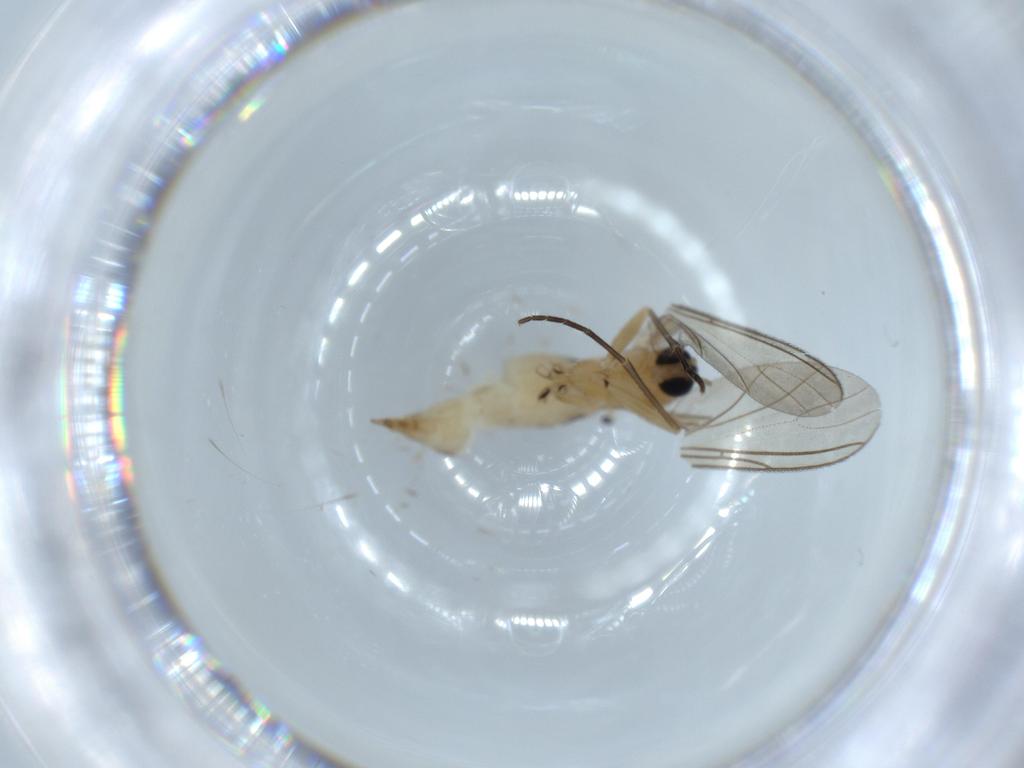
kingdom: Animalia
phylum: Arthropoda
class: Insecta
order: Diptera
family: Sciaridae
